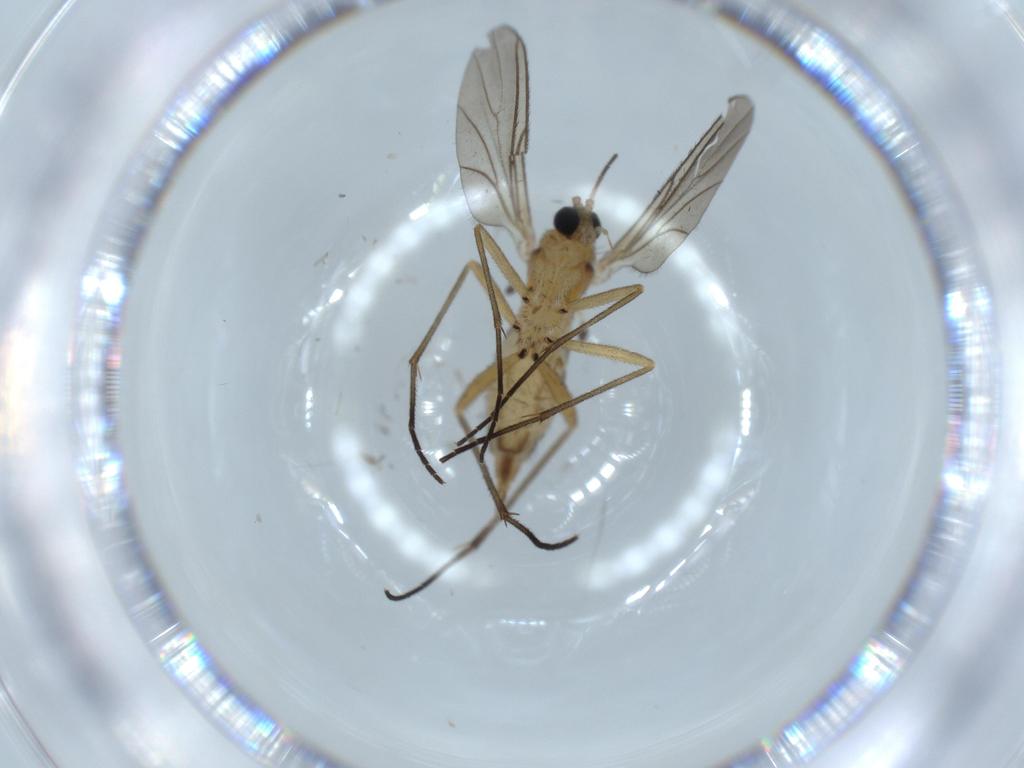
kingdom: Animalia
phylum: Arthropoda
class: Insecta
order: Diptera
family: Sciaridae
